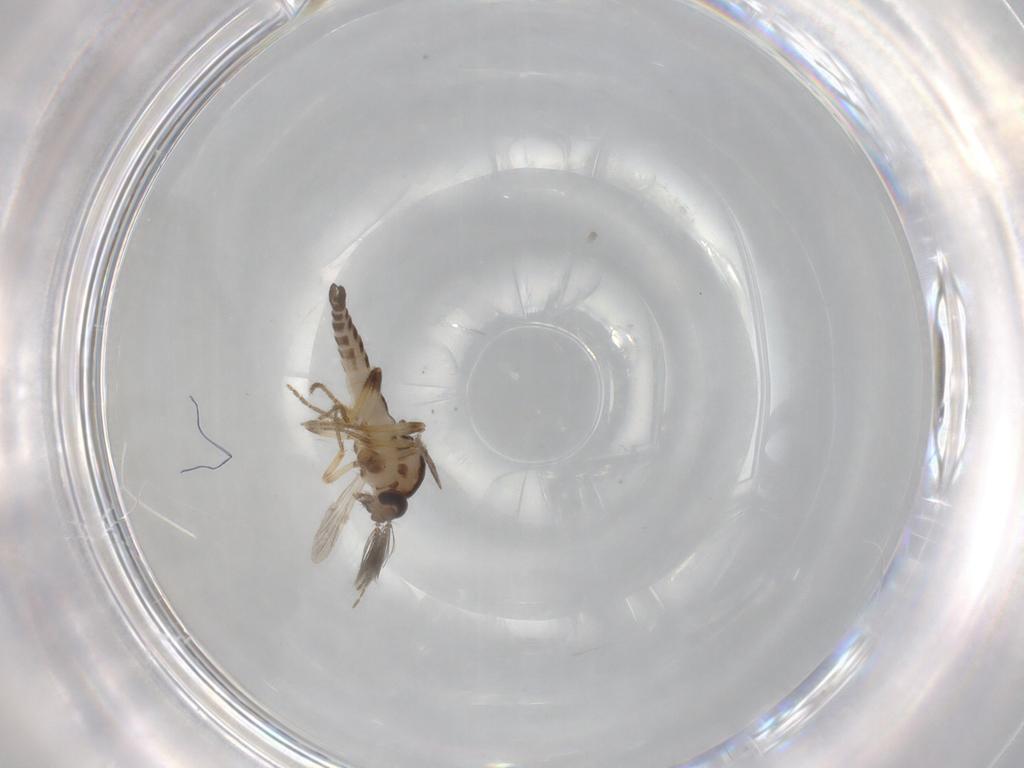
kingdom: Animalia
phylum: Arthropoda
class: Insecta
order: Diptera
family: Ceratopogonidae
